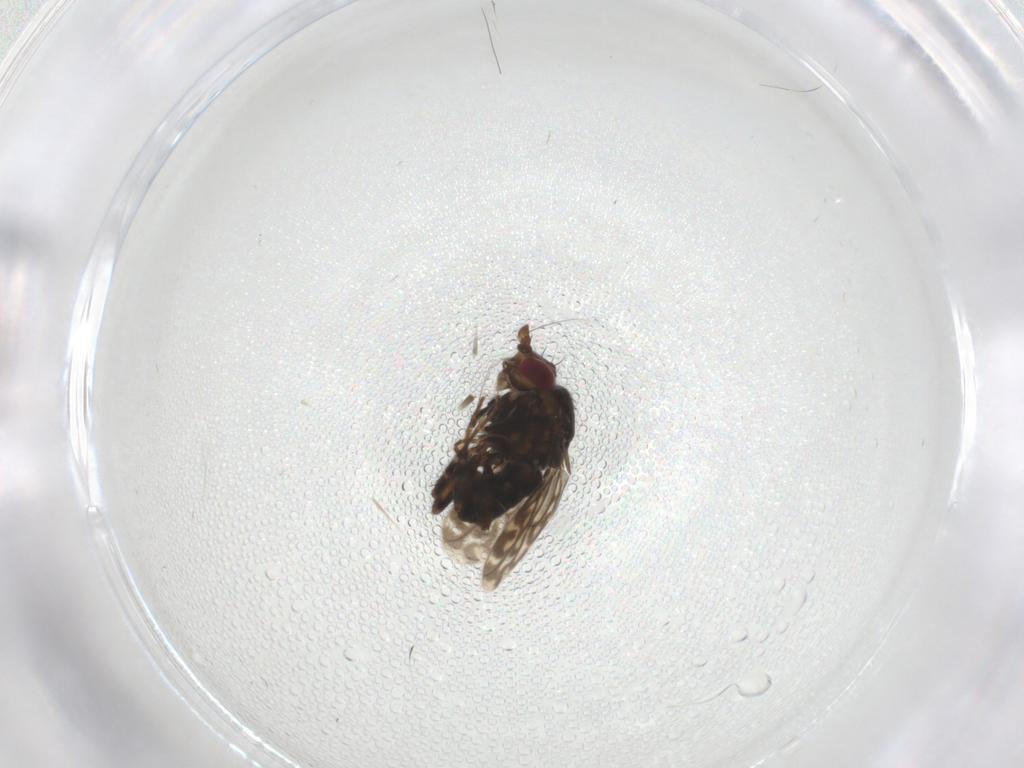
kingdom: Animalia
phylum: Arthropoda
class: Insecta
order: Diptera
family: Sphaeroceridae
